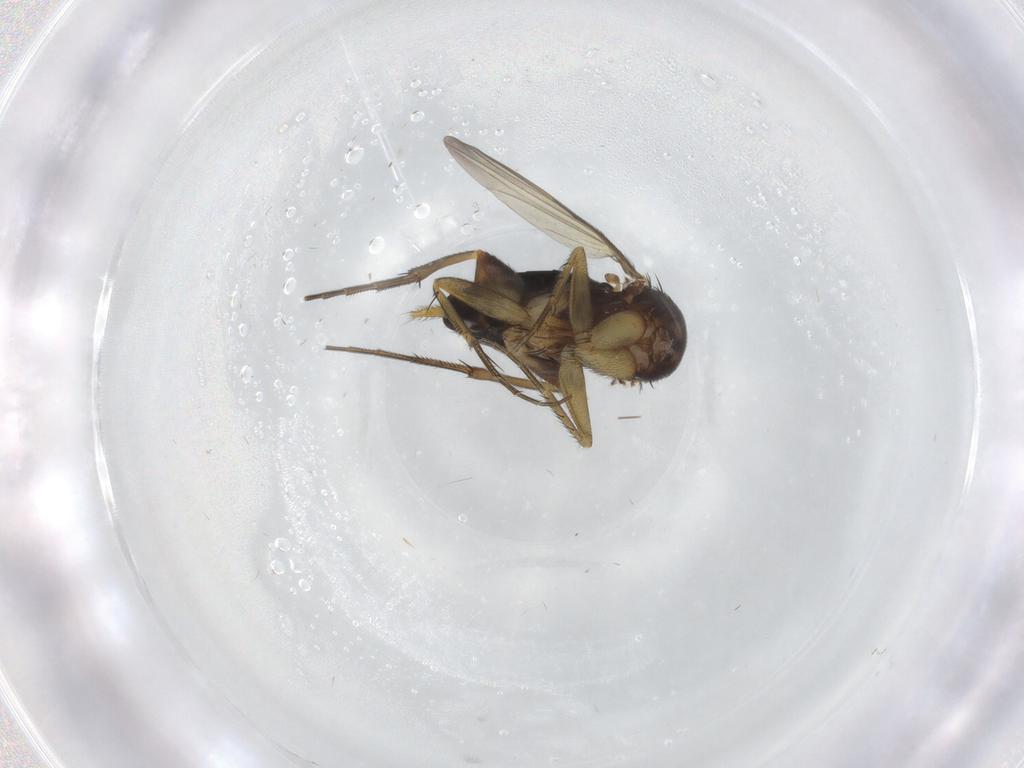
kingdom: Animalia
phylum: Arthropoda
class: Insecta
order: Diptera
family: Phoridae
